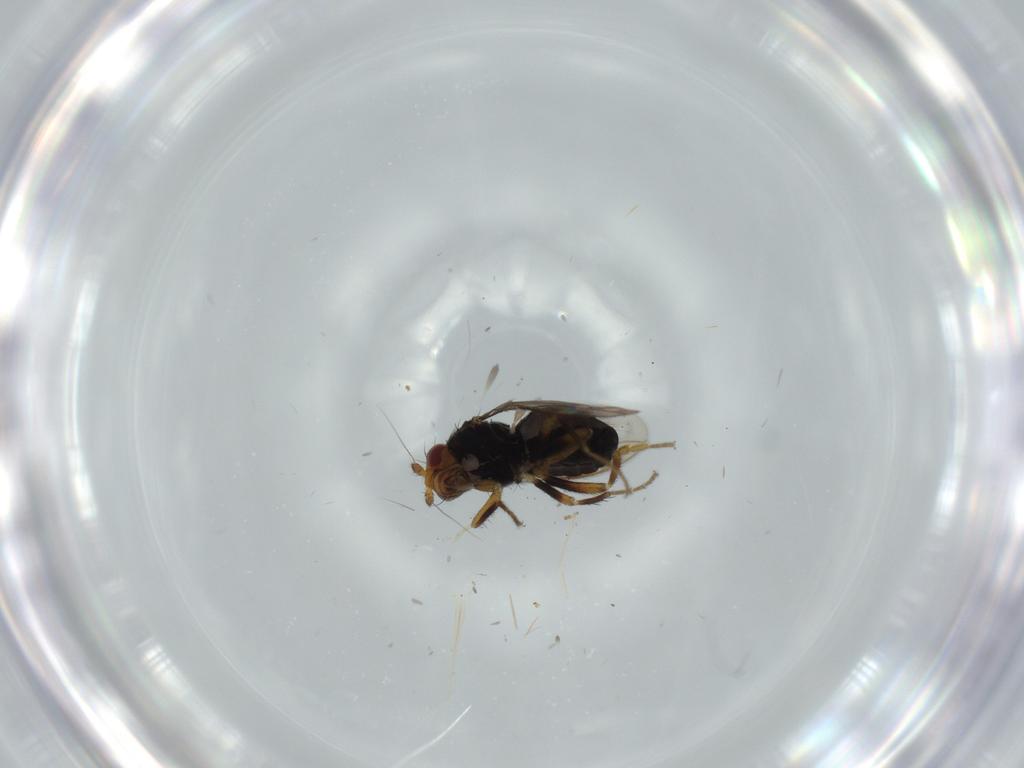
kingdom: Animalia
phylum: Arthropoda
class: Insecta
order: Diptera
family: Sphaeroceridae
